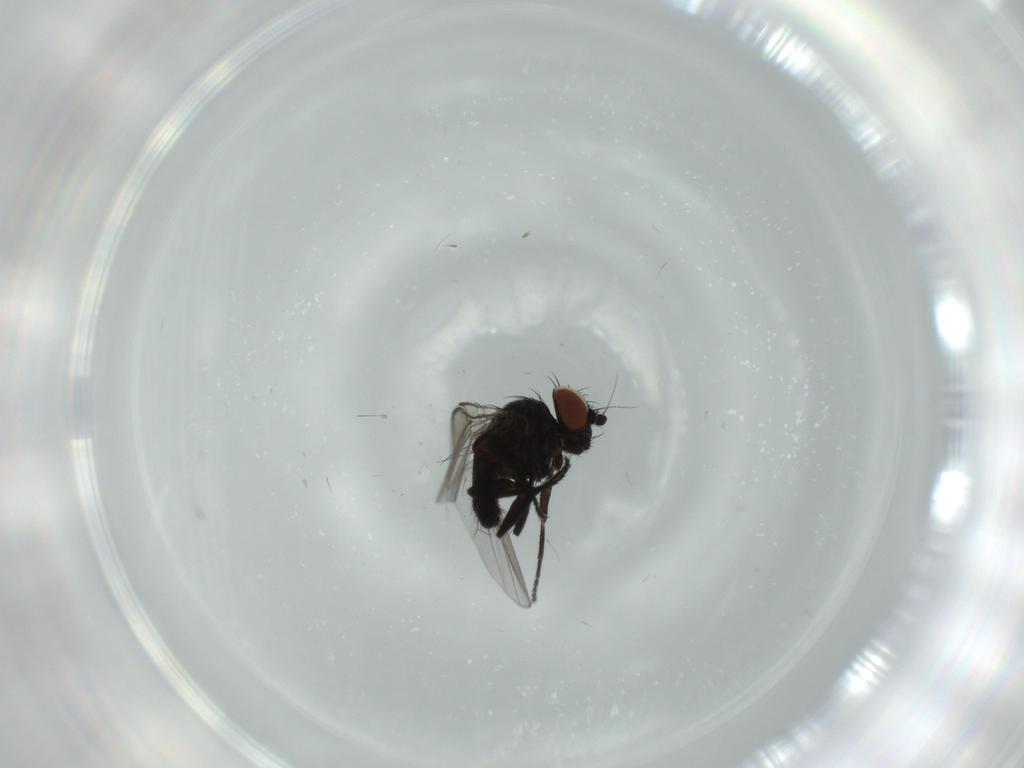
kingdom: Animalia
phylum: Arthropoda
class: Insecta
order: Diptera
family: Milichiidae
